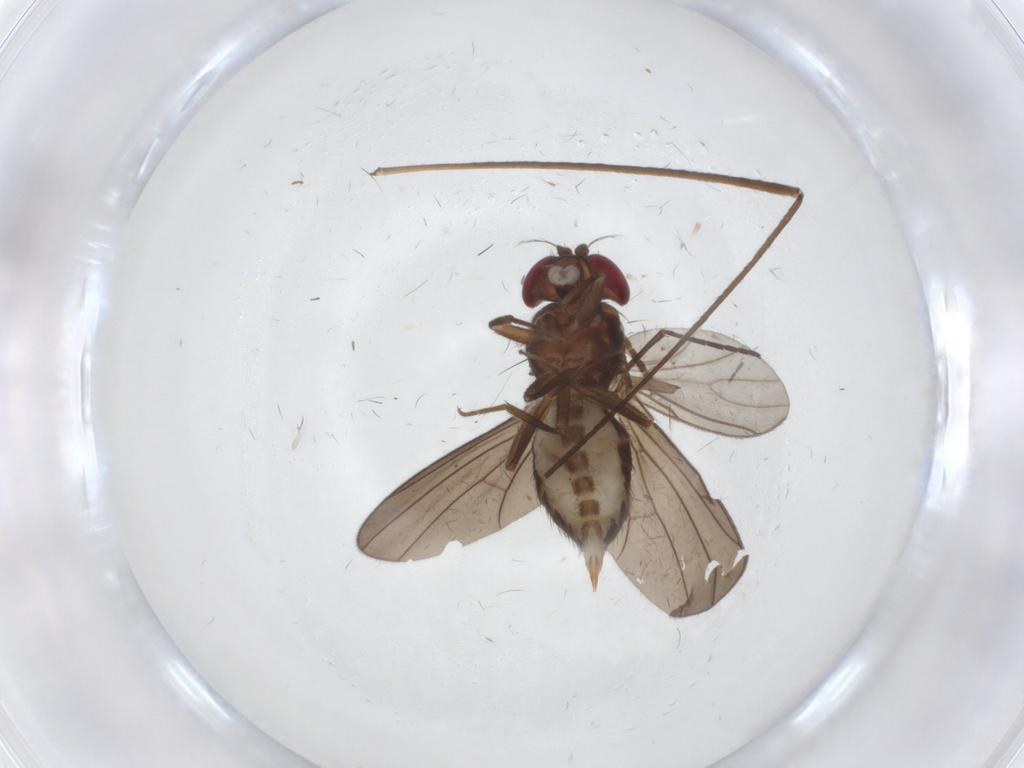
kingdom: Animalia
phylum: Arthropoda
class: Insecta
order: Diptera
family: Drosophilidae
